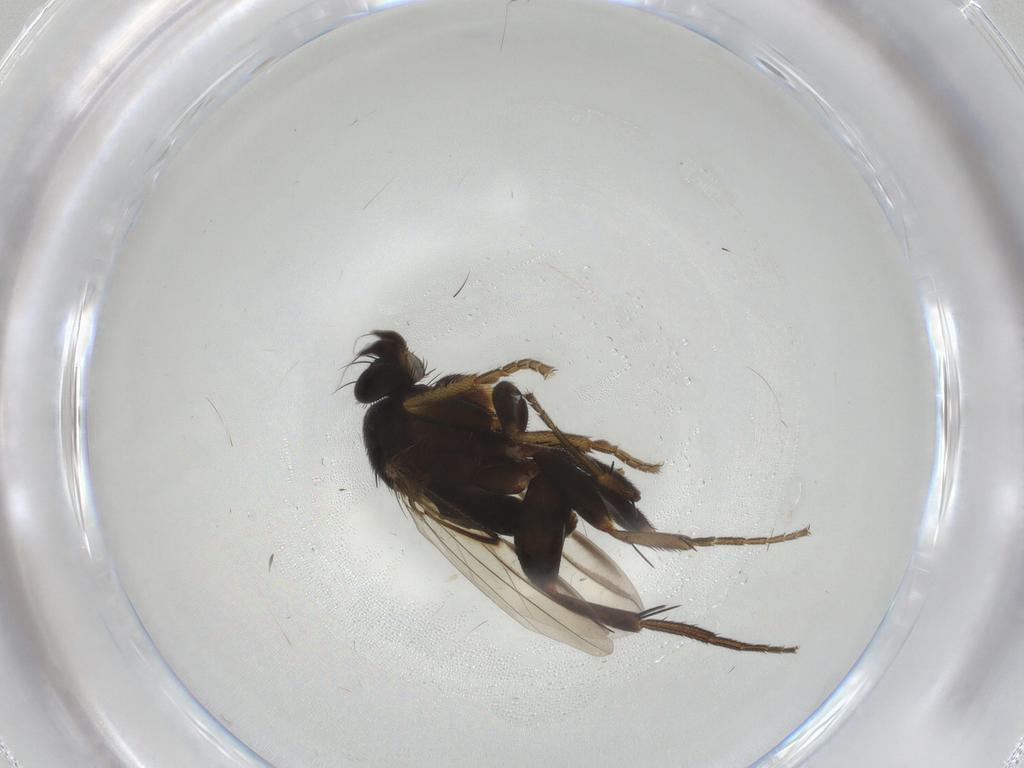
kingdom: Animalia
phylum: Arthropoda
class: Insecta
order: Diptera
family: Phoridae
